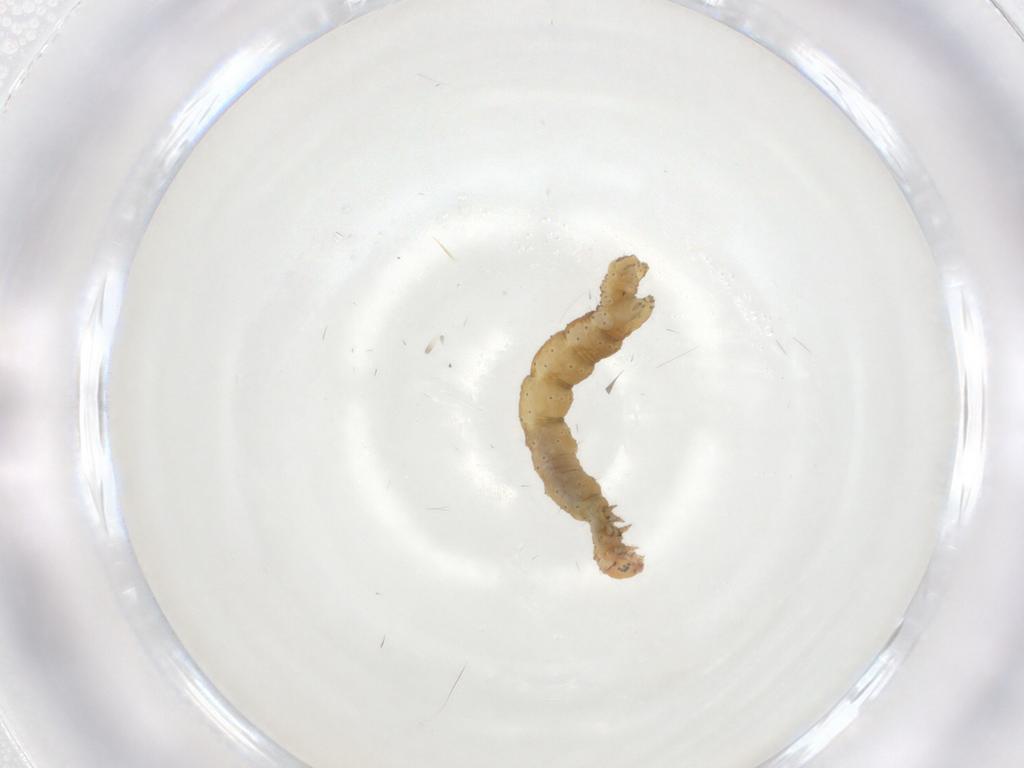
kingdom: Animalia
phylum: Arthropoda
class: Insecta
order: Lepidoptera
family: Geometridae
